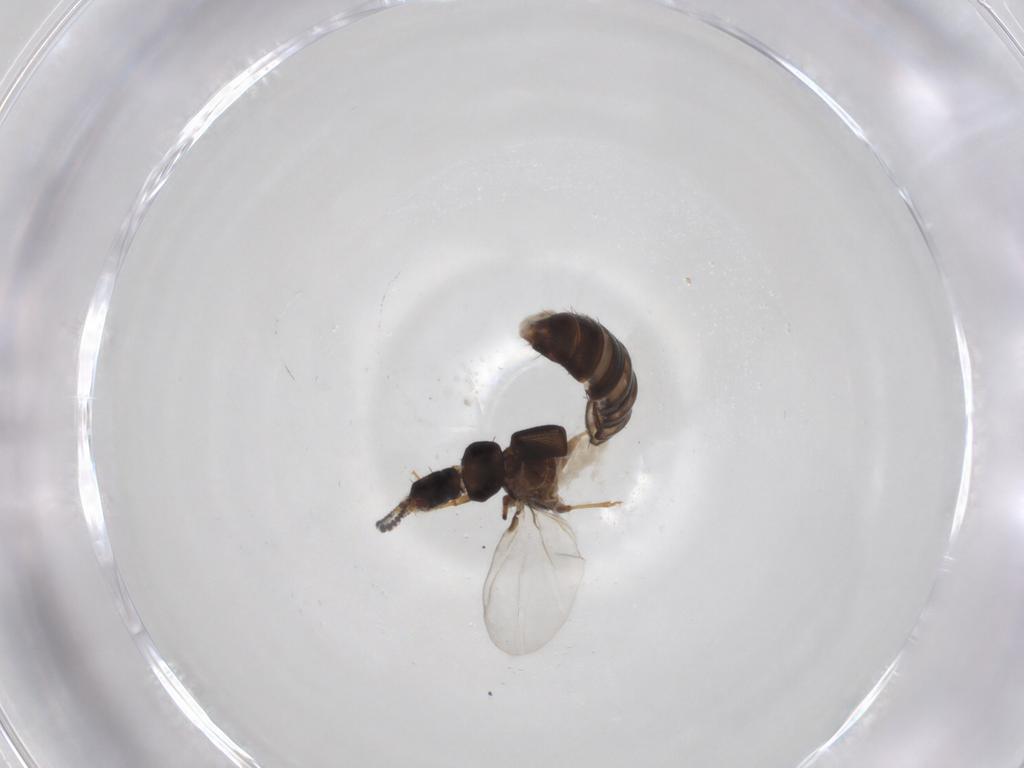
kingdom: Animalia
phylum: Arthropoda
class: Insecta
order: Coleoptera
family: Staphylinidae
